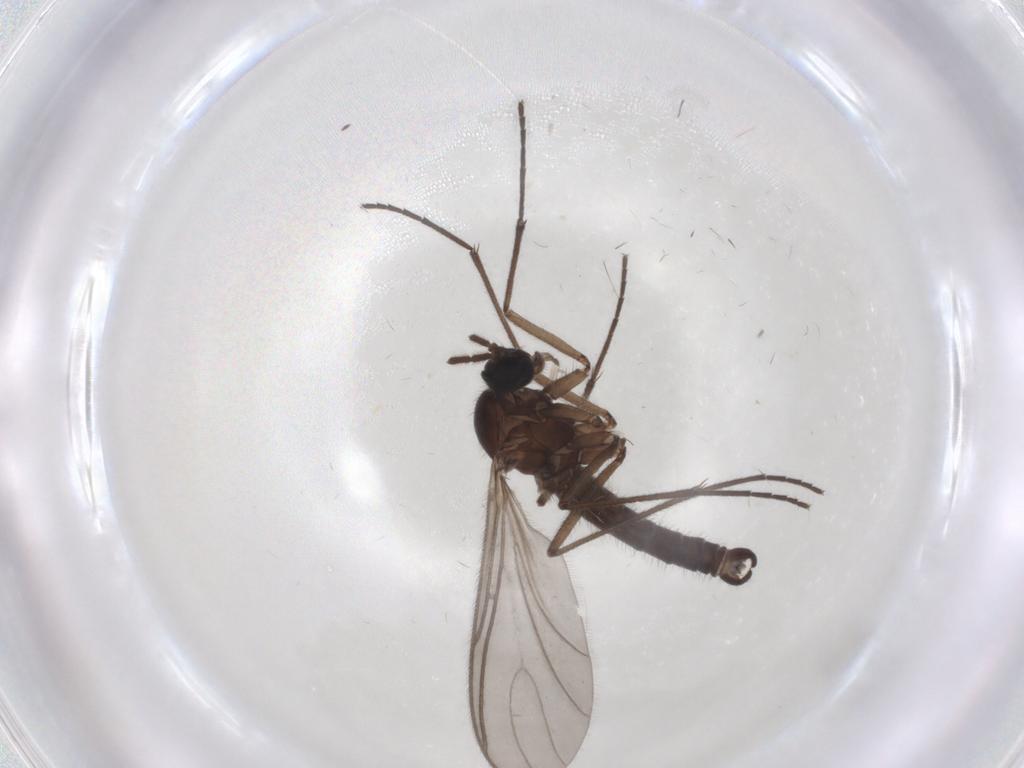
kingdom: Animalia
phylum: Arthropoda
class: Insecta
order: Diptera
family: Sciaridae
